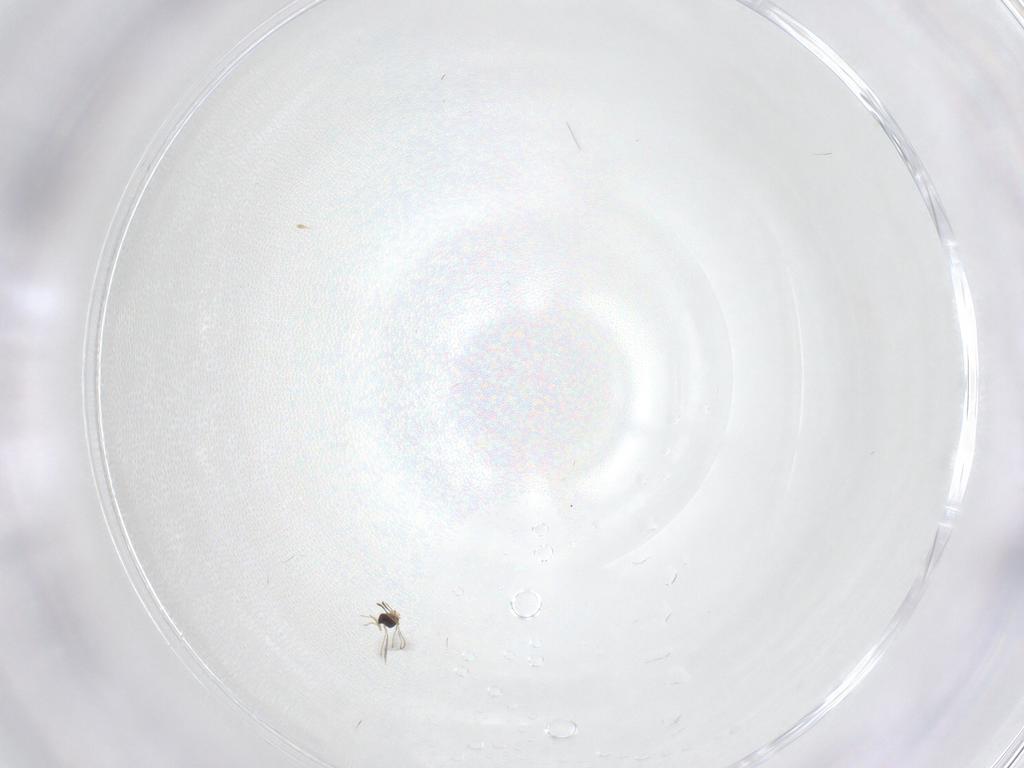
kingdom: Animalia
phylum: Arthropoda
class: Insecta
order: Hymenoptera
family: Mymaridae
